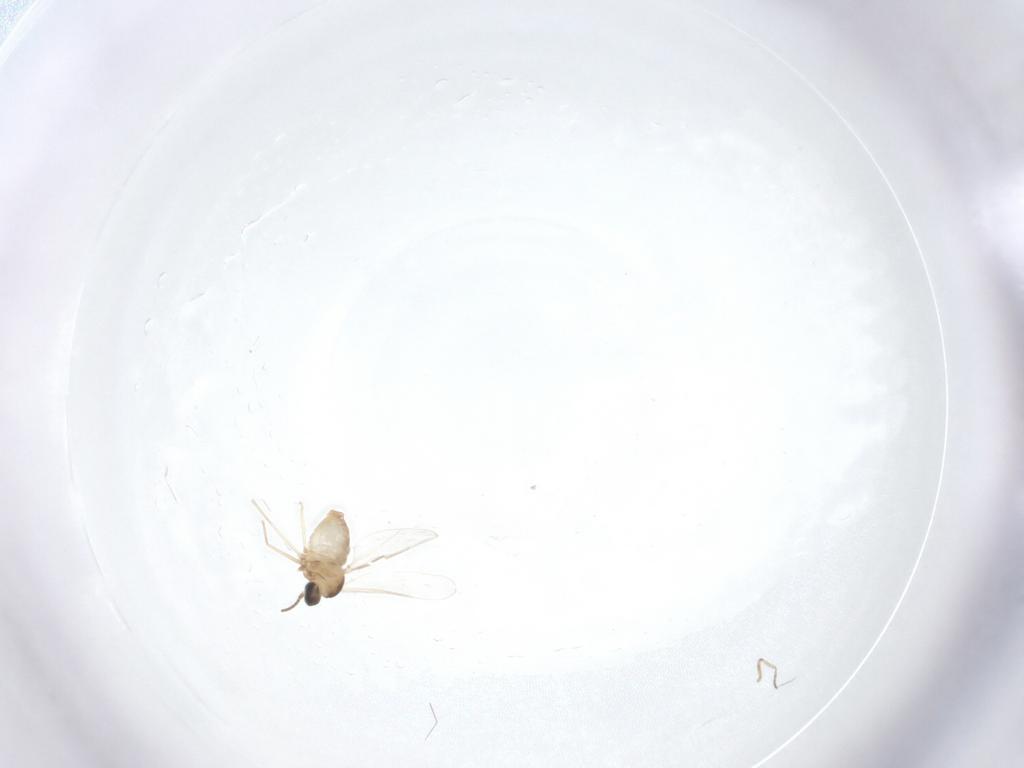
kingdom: Animalia
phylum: Arthropoda
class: Insecta
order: Diptera
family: Cecidomyiidae
